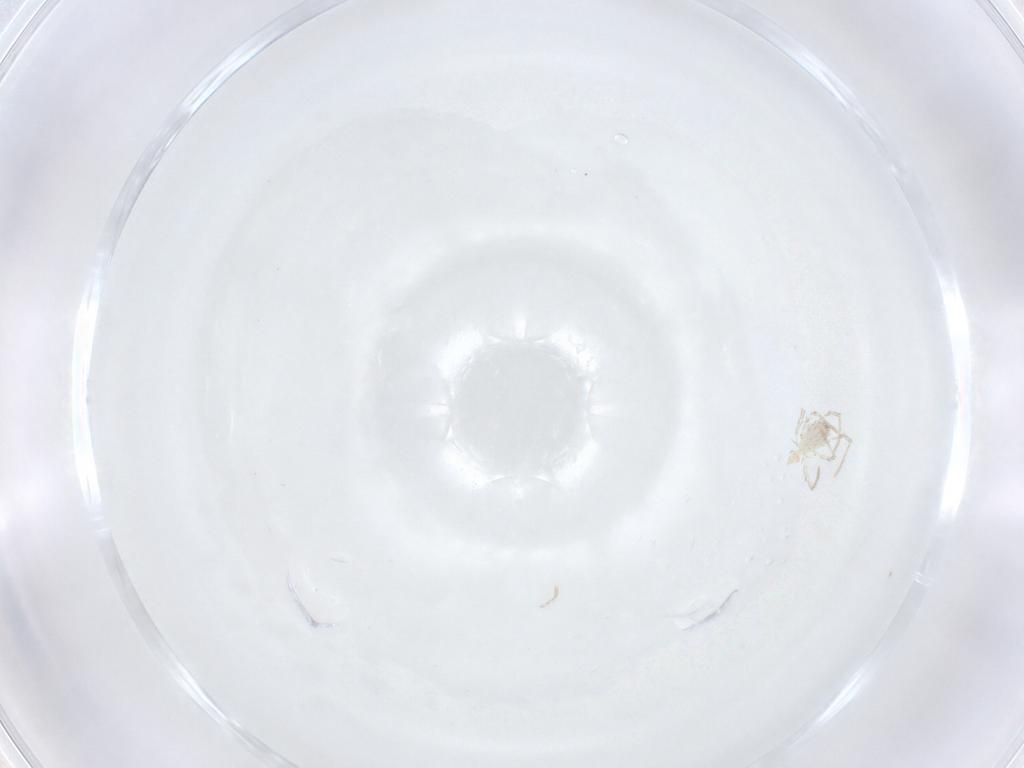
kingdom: Animalia
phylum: Arthropoda
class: Arachnida
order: Trombidiformes
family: Erythraeidae
